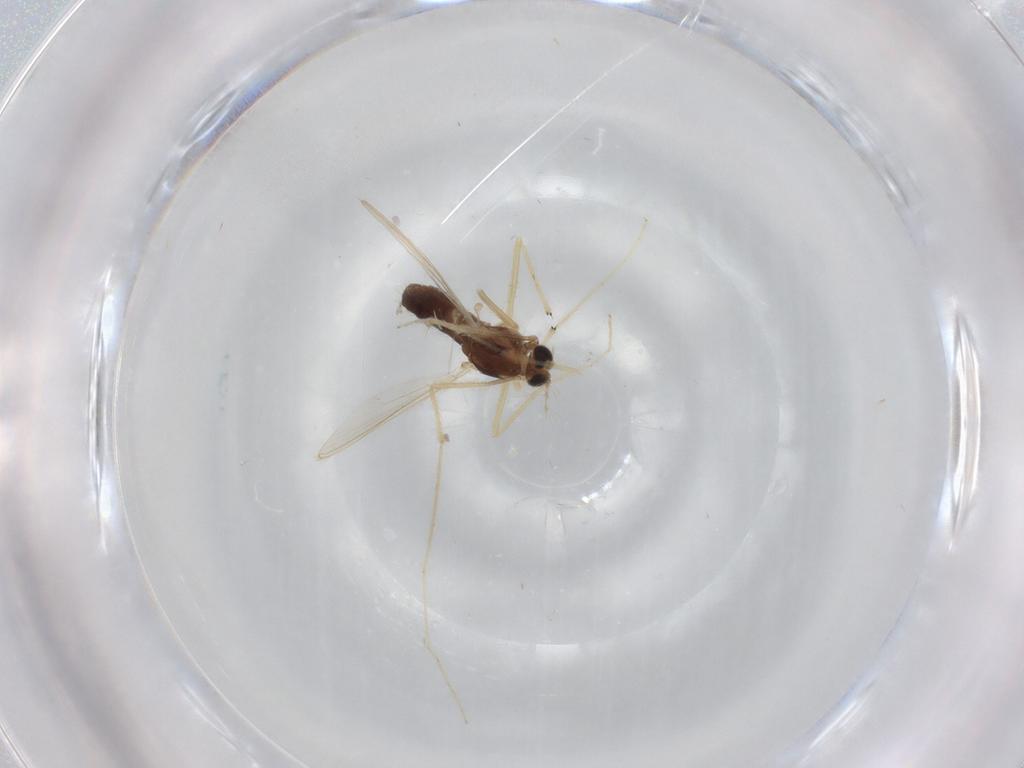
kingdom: Animalia
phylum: Arthropoda
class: Insecta
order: Diptera
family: Chironomidae
